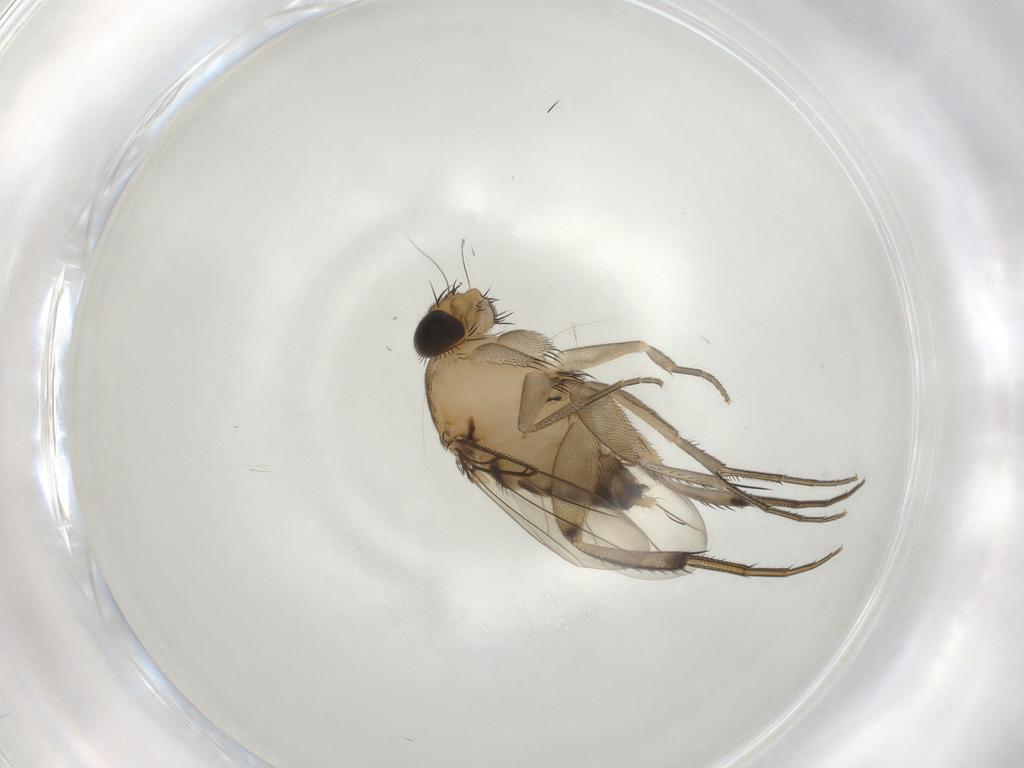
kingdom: Animalia
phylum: Arthropoda
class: Insecta
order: Diptera
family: Phoridae
